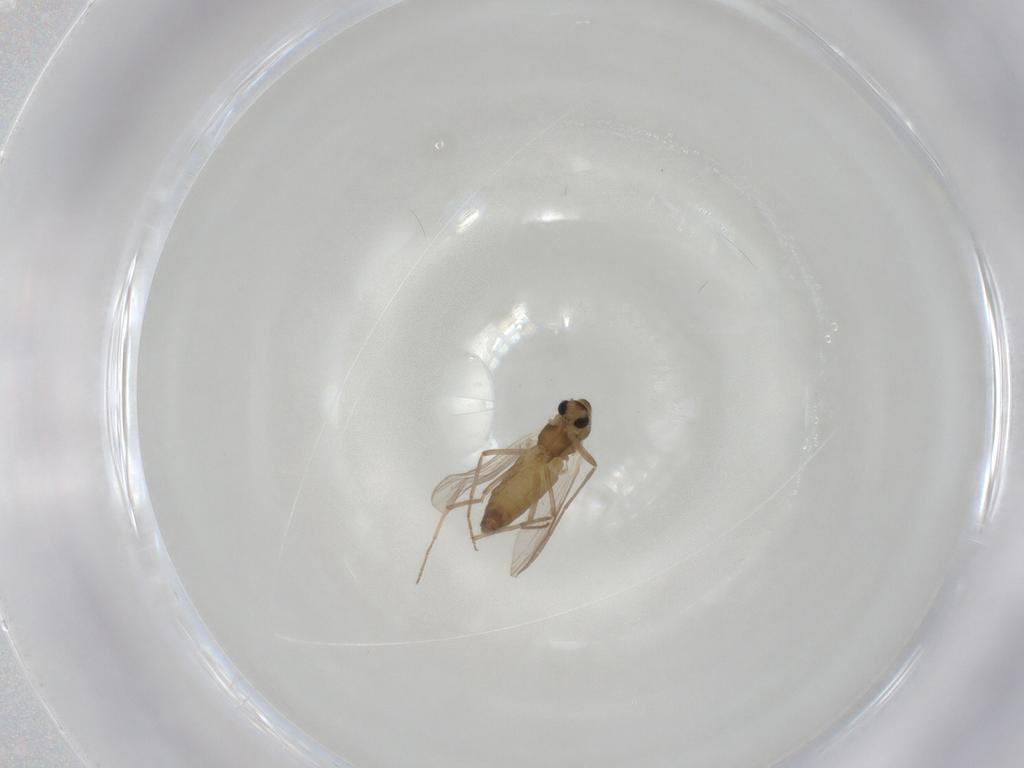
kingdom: Animalia
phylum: Arthropoda
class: Insecta
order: Diptera
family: Chironomidae
